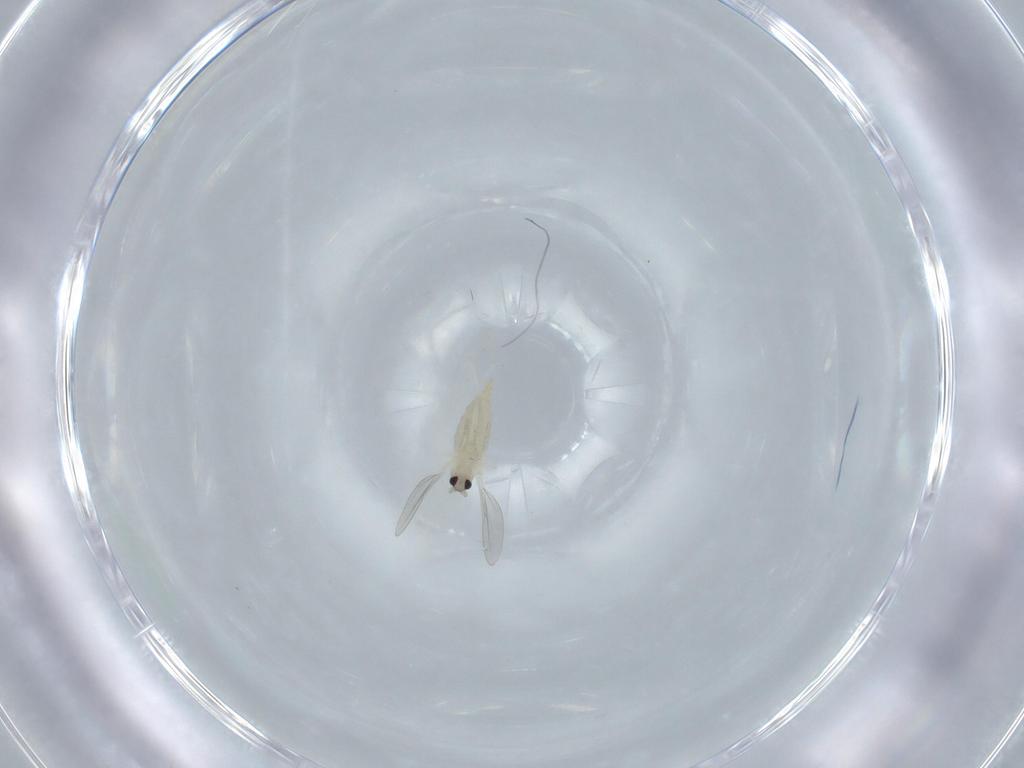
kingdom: Animalia
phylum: Arthropoda
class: Insecta
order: Diptera
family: Cecidomyiidae
